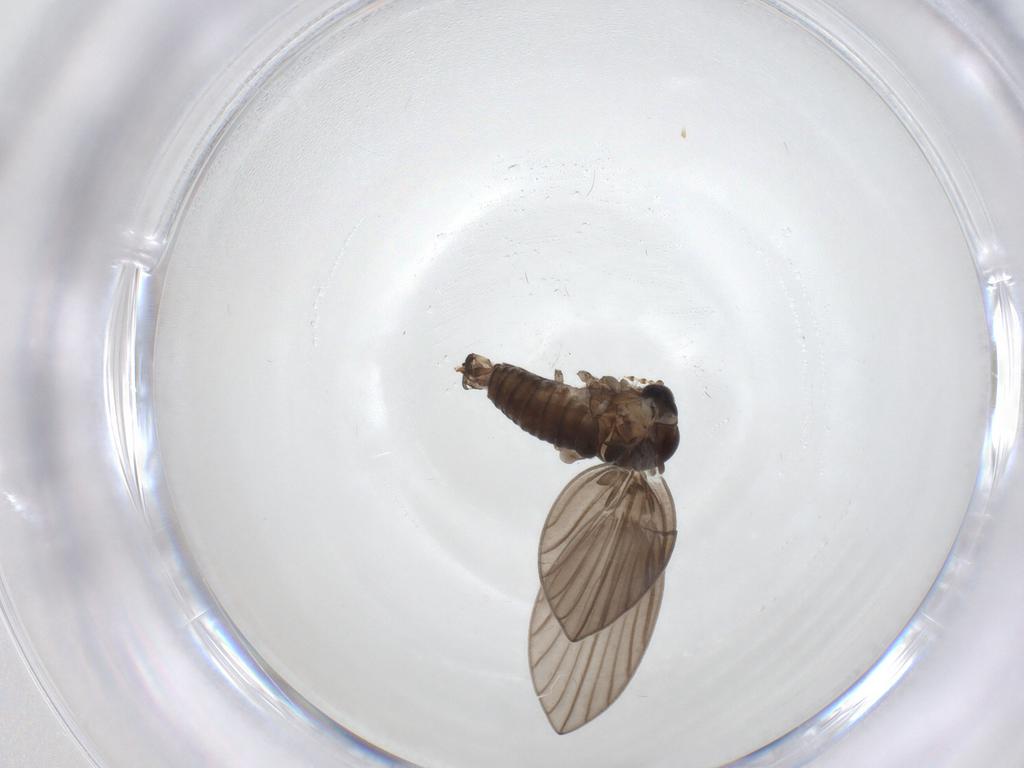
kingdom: Animalia
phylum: Arthropoda
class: Insecta
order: Diptera
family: Psychodidae
